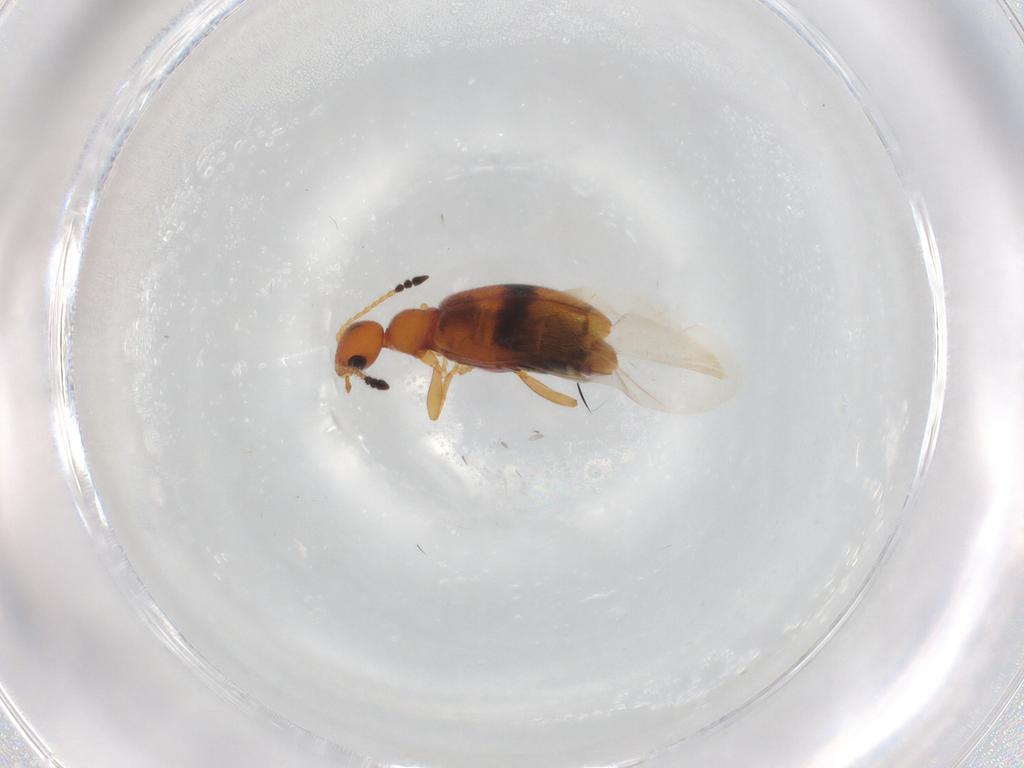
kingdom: Animalia
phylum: Arthropoda
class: Insecta
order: Coleoptera
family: Anthicidae
